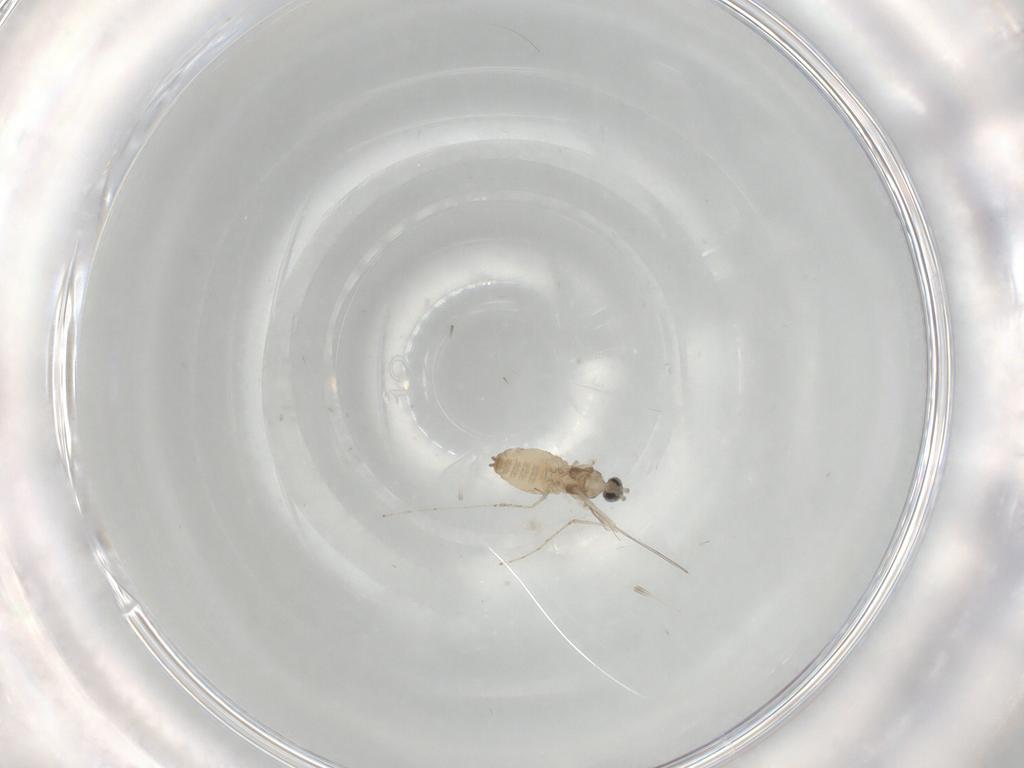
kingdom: Animalia
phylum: Arthropoda
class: Insecta
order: Diptera
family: Cecidomyiidae
